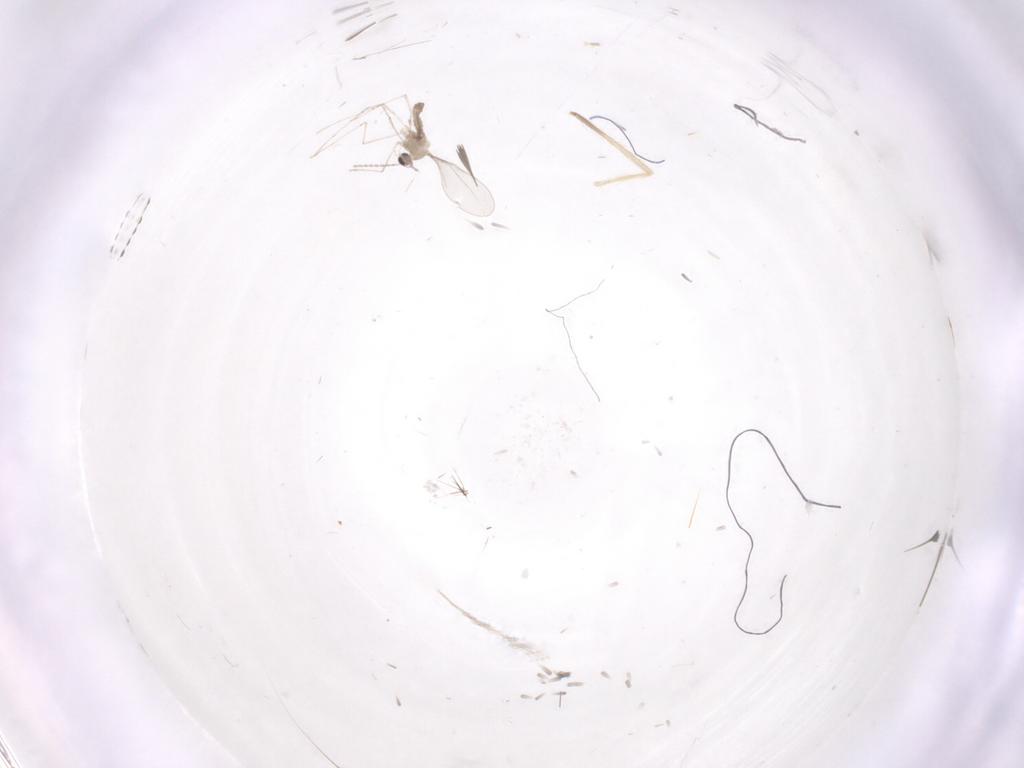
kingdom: Animalia
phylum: Arthropoda
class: Insecta
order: Diptera
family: Cecidomyiidae
